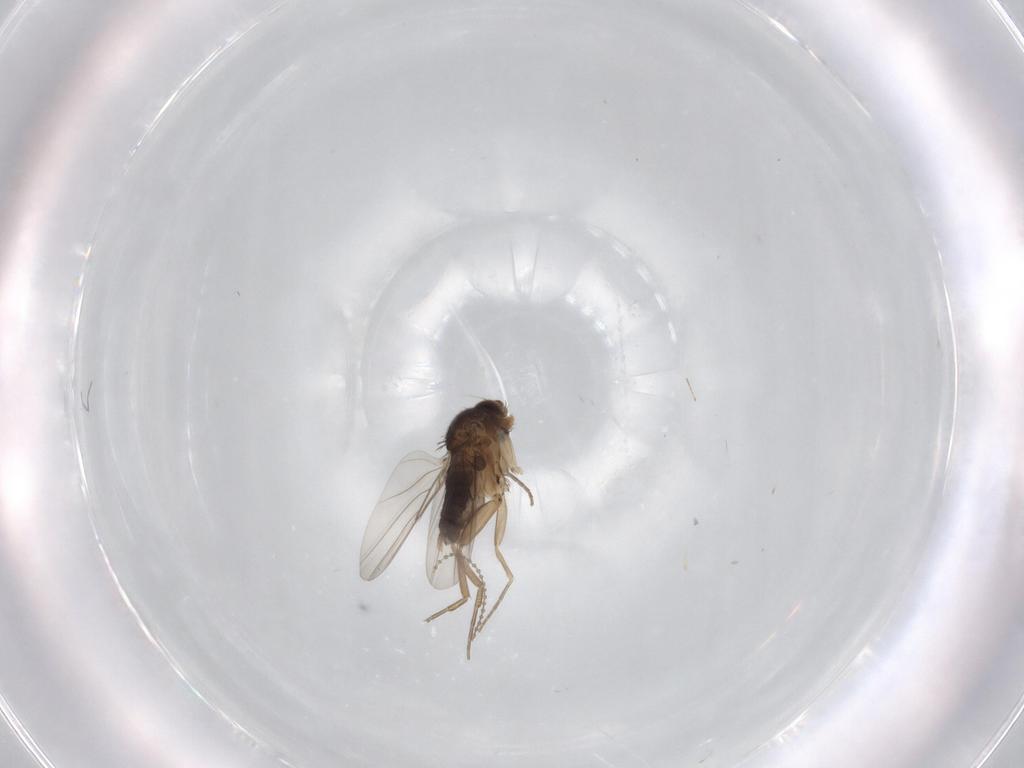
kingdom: Animalia
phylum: Arthropoda
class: Insecta
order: Diptera
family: Phoridae
